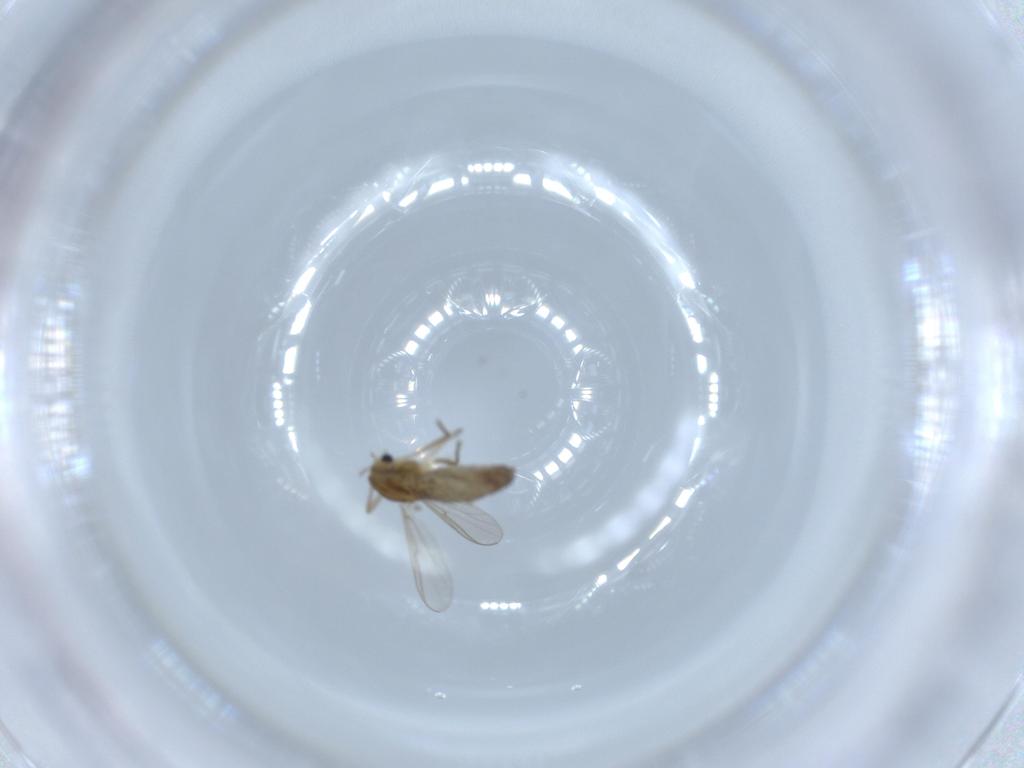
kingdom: Animalia
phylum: Arthropoda
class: Insecta
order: Diptera
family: Chironomidae
